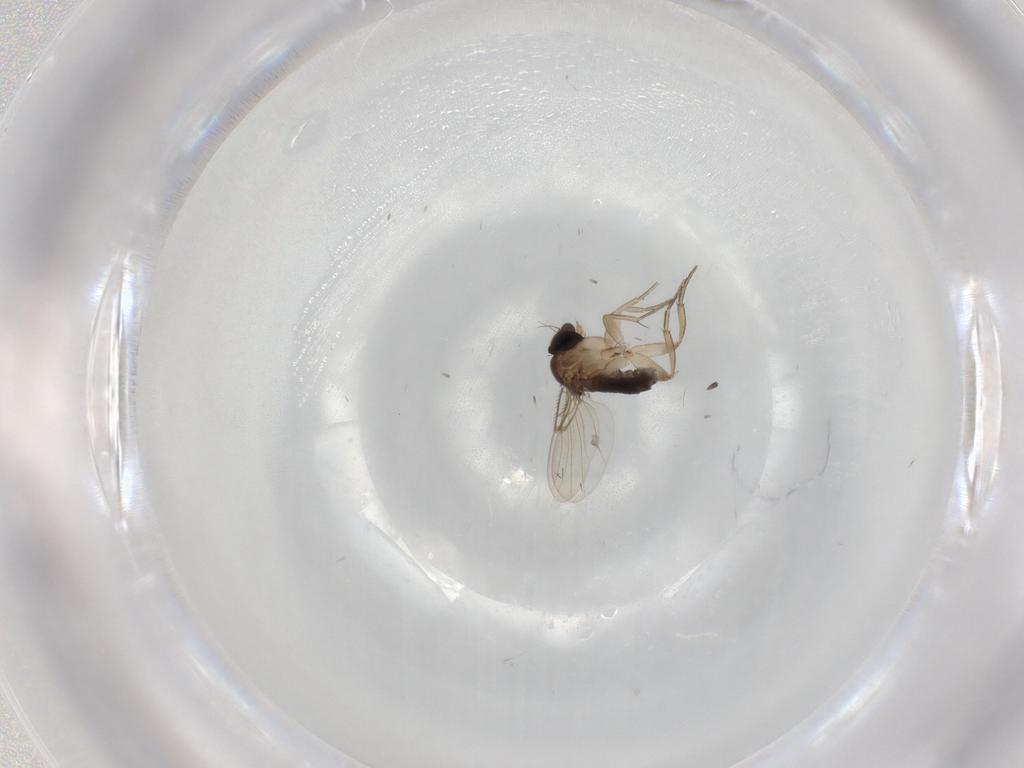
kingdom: Animalia
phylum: Arthropoda
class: Insecta
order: Diptera
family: Phoridae
